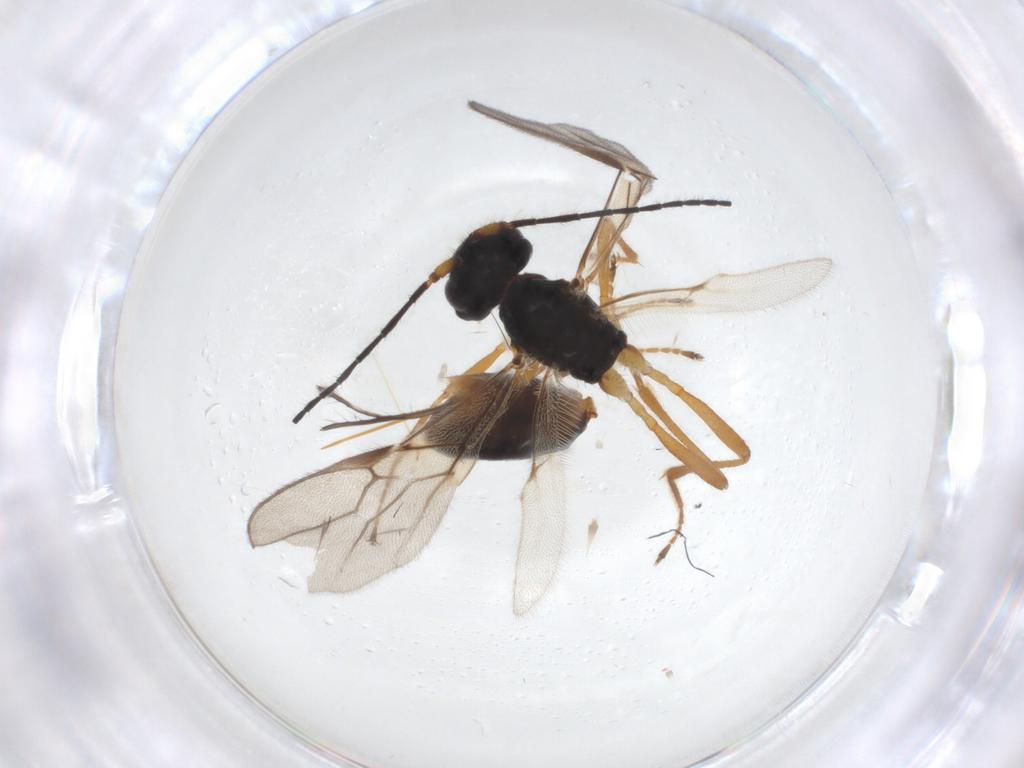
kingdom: Animalia
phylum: Arthropoda
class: Insecta
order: Hymenoptera
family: Braconidae
